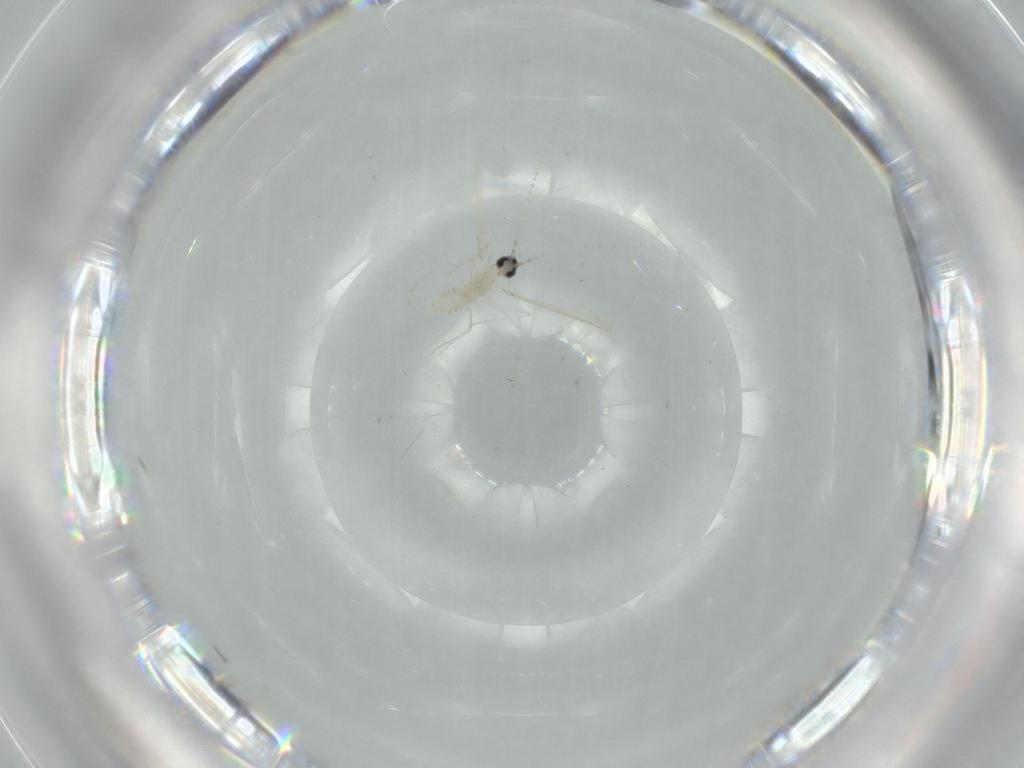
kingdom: Animalia
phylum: Arthropoda
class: Insecta
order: Diptera
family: Cecidomyiidae
